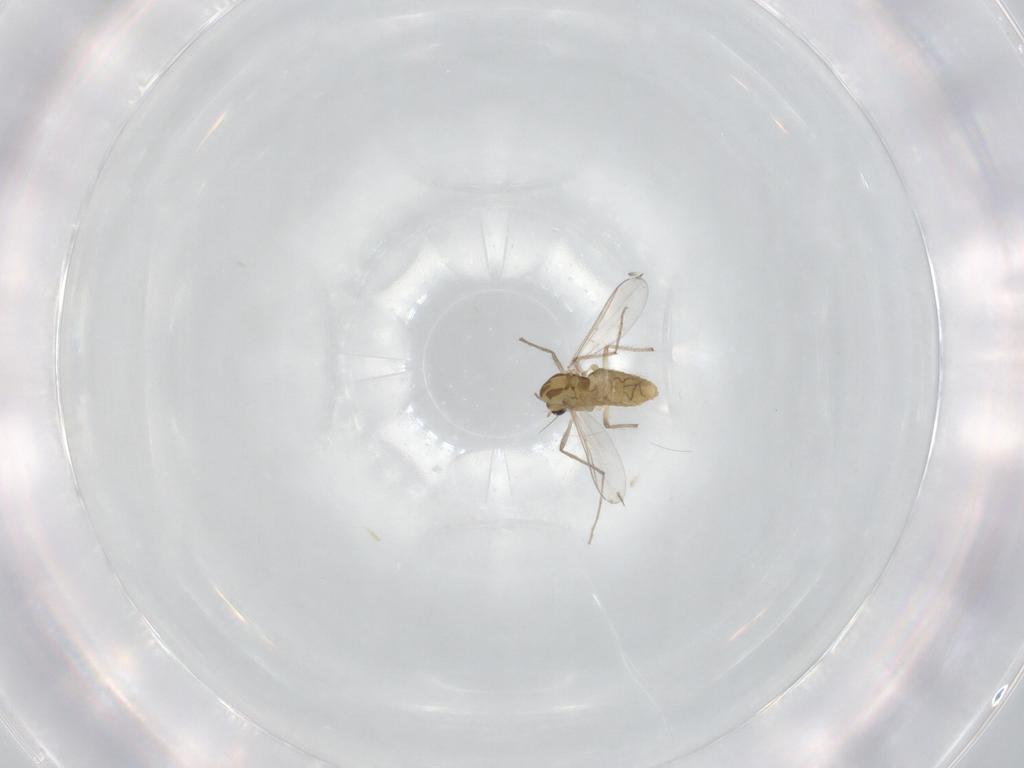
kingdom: Animalia
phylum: Arthropoda
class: Insecta
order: Diptera
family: Chironomidae
